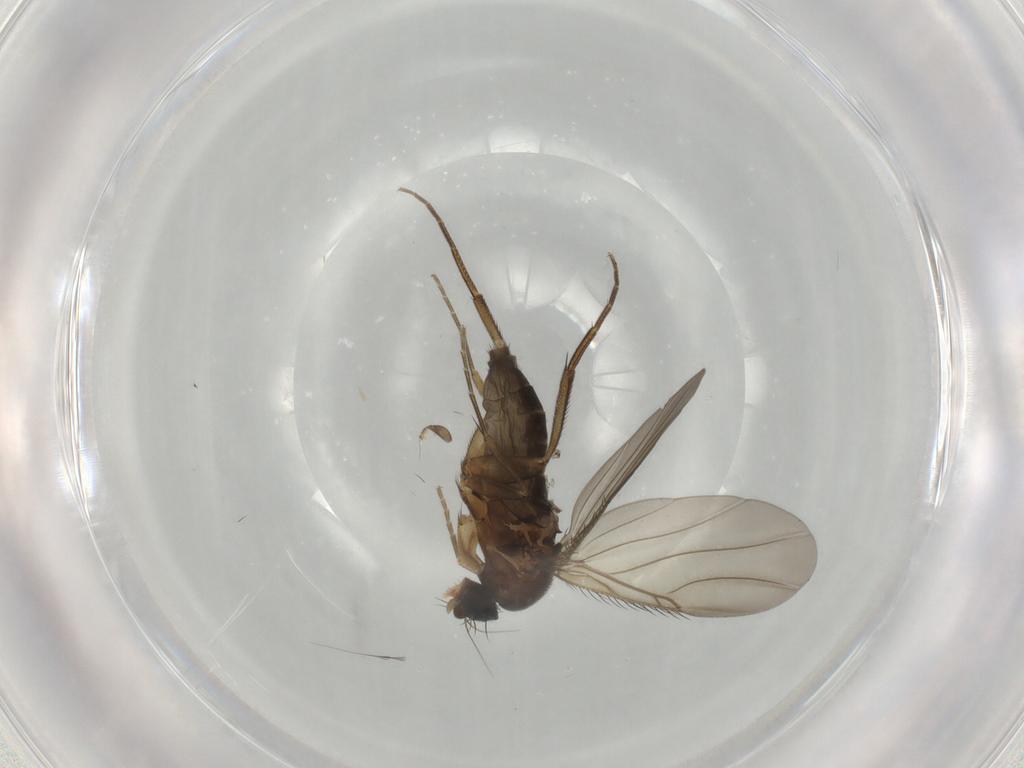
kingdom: Animalia
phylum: Arthropoda
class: Insecta
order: Diptera
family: Phoridae
